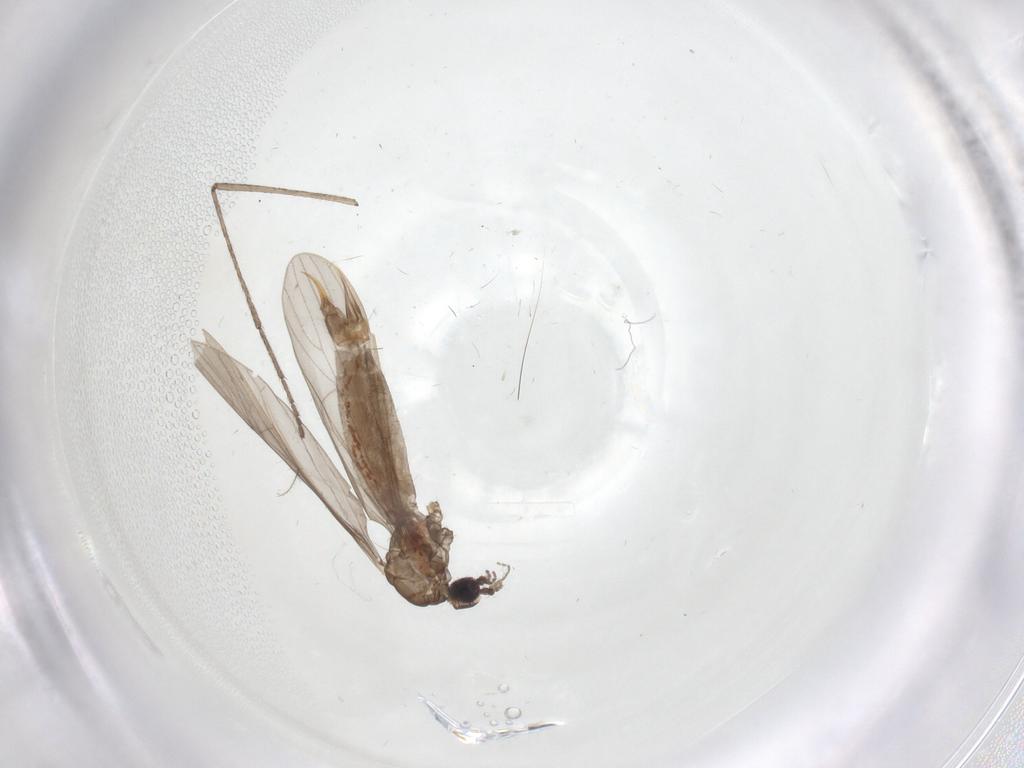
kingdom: Animalia
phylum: Arthropoda
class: Insecta
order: Diptera
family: Limoniidae
